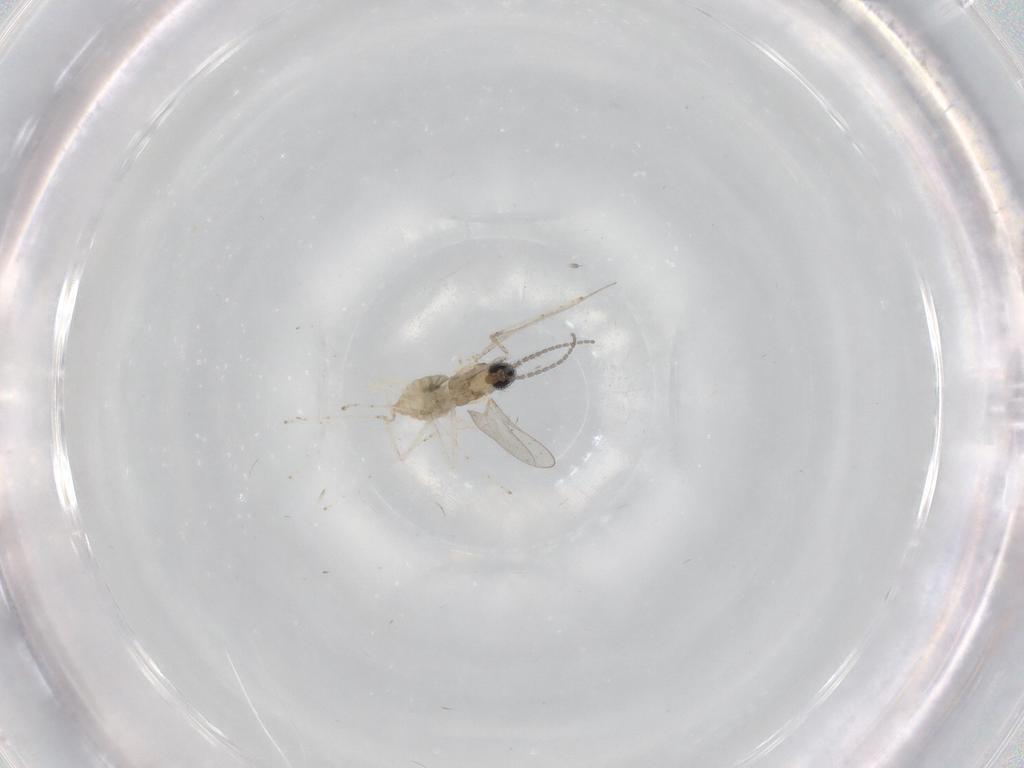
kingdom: Animalia
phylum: Arthropoda
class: Insecta
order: Diptera
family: Cecidomyiidae
